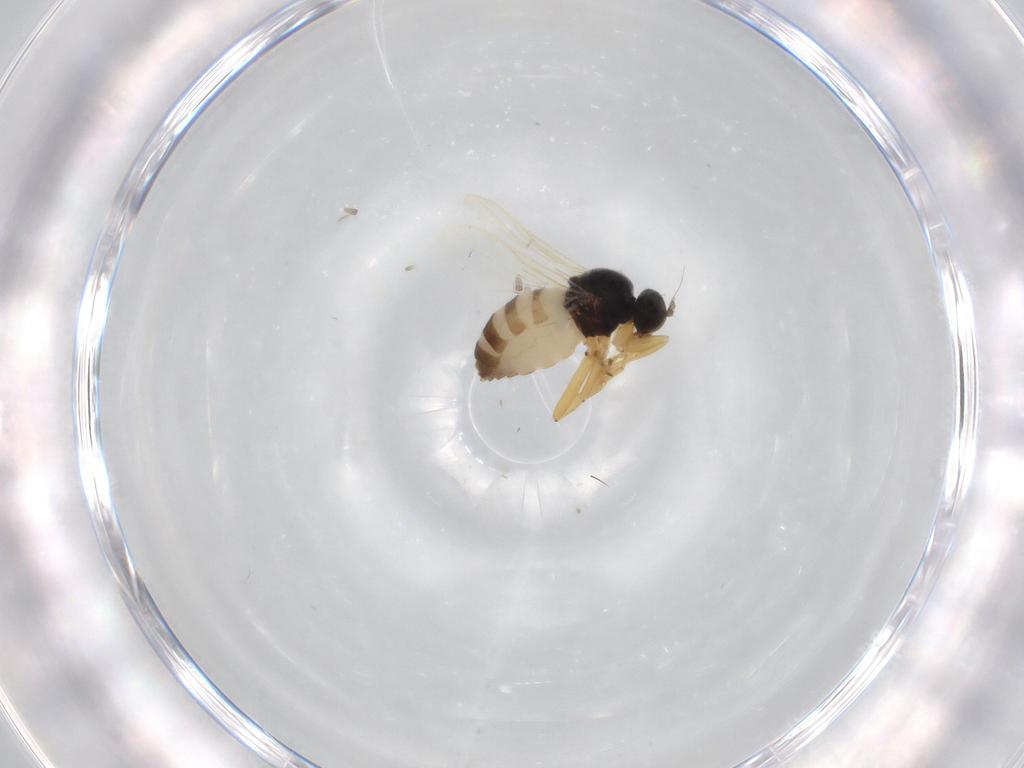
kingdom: Animalia
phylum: Arthropoda
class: Insecta
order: Diptera
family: Hybotidae
